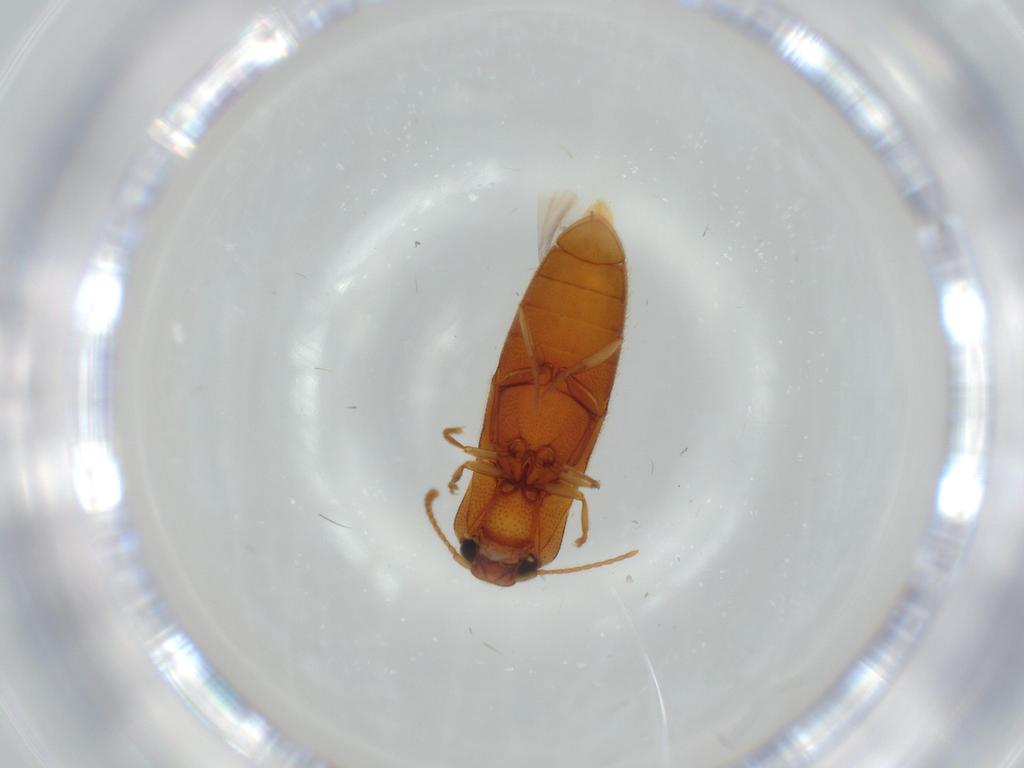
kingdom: Animalia
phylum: Arthropoda
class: Insecta
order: Coleoptera
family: Elateridae
